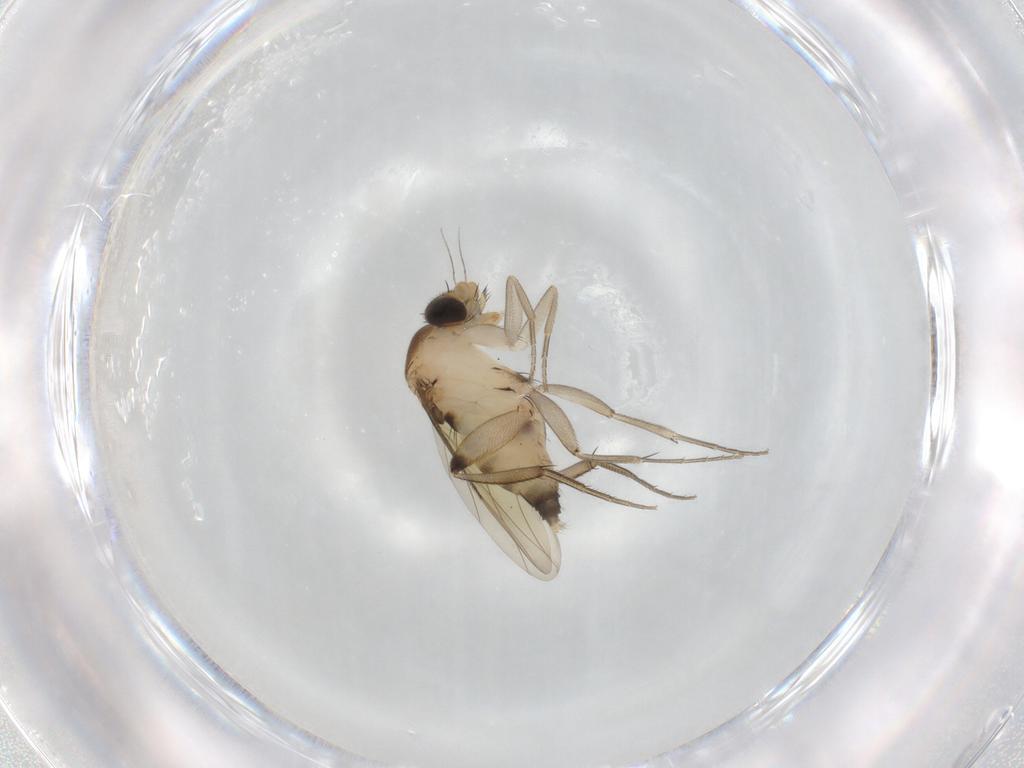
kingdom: Animalia
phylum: Arthropoda
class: Insecta
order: Diptera
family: Phoridae
